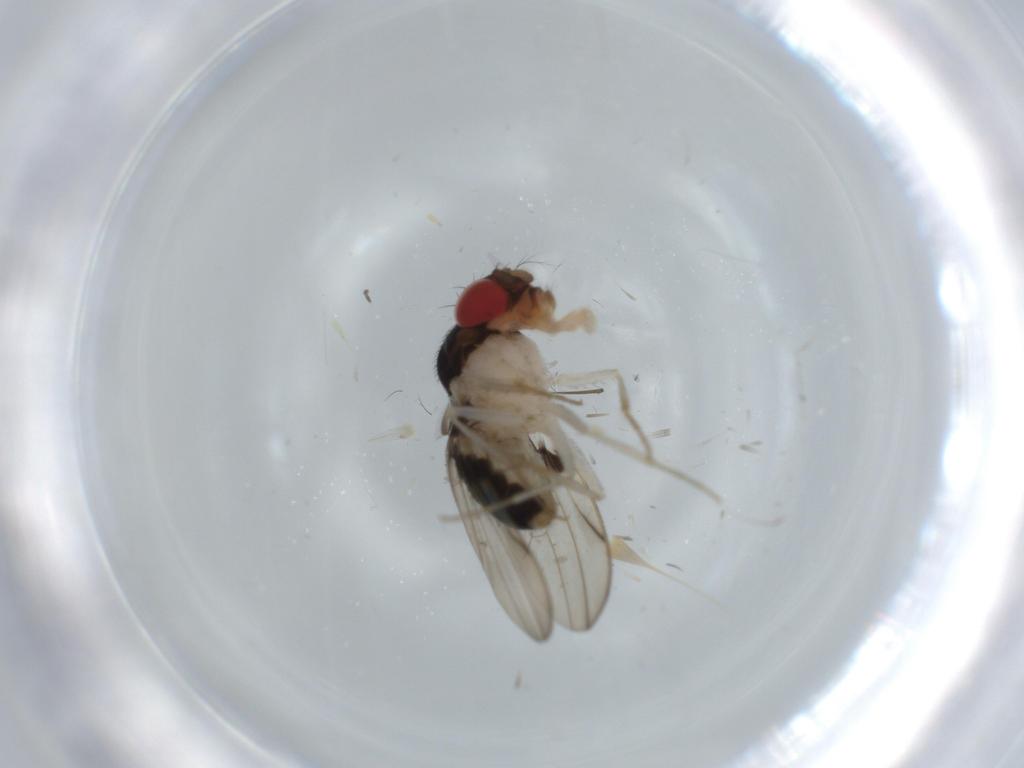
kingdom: Animalia
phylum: Arthropoda
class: Insecta
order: Diptera
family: Drosophilidae
